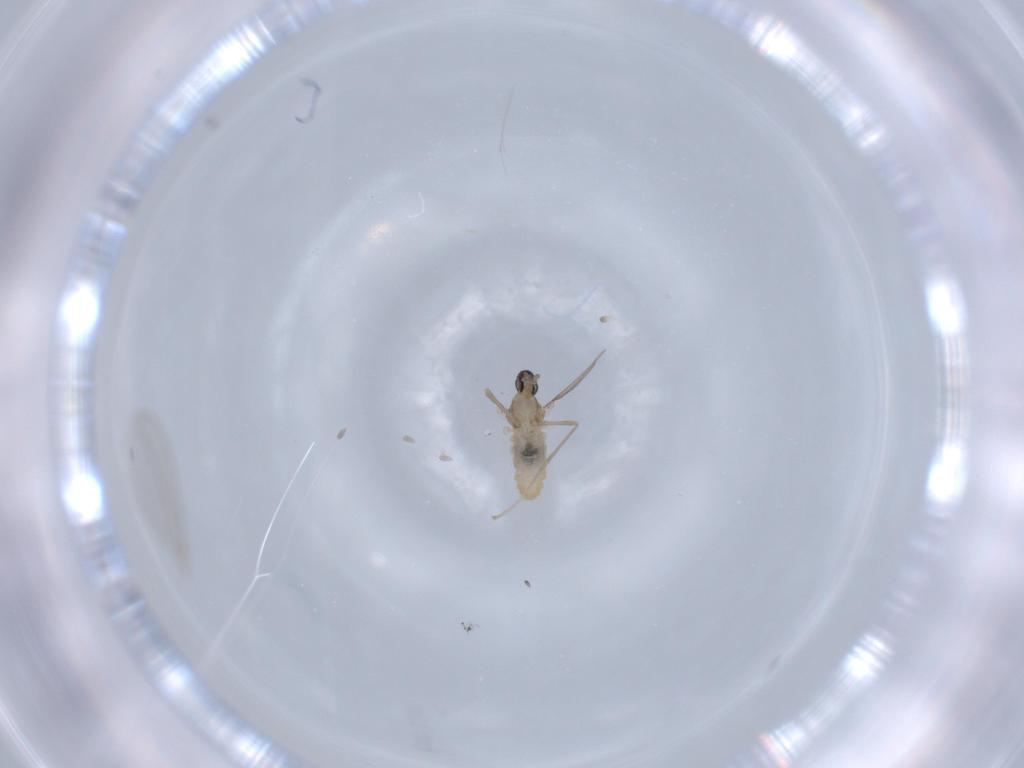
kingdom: Animalia
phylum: Arthropoda
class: Insecta
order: Diptera
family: Cecidomyiidae
